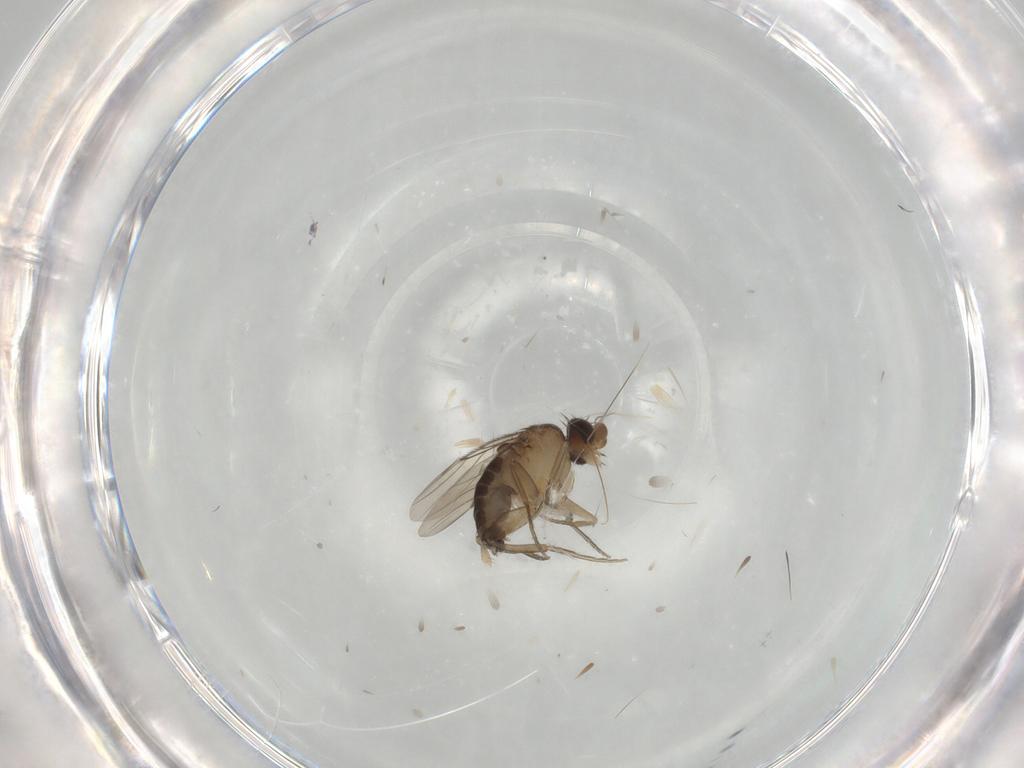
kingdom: Animalia
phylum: Arthropoda
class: Insecta
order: Diptera
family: Phoridae
